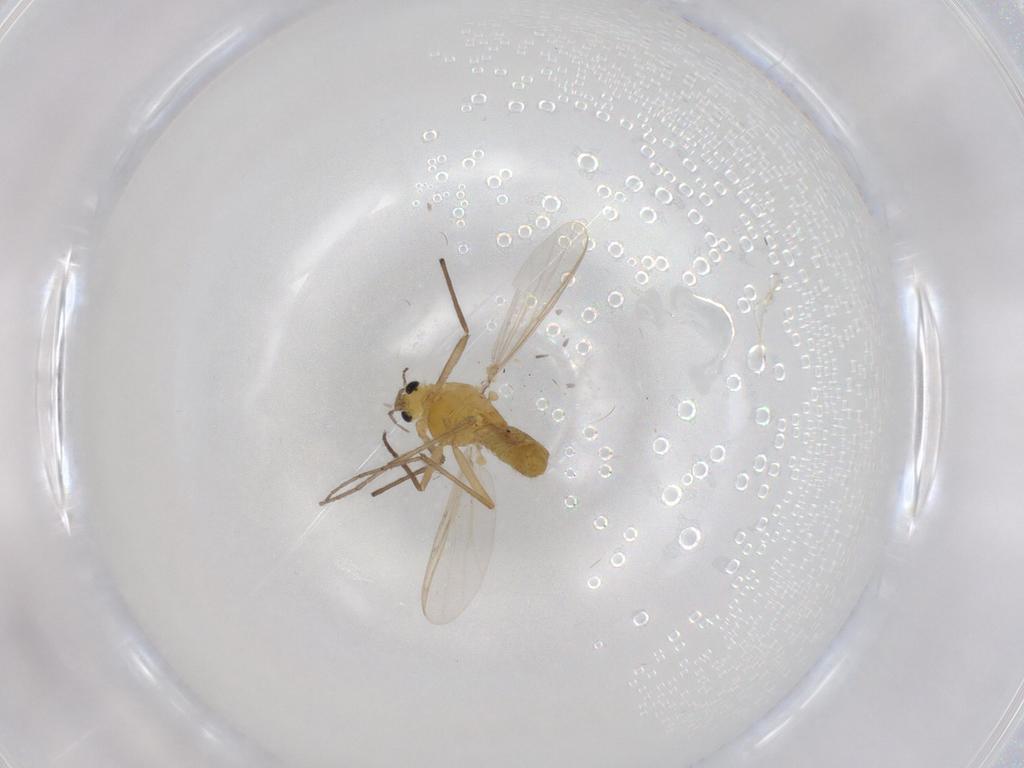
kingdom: Animalia
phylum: Arthropoda
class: Insecta
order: Diptera
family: Chironomidae
